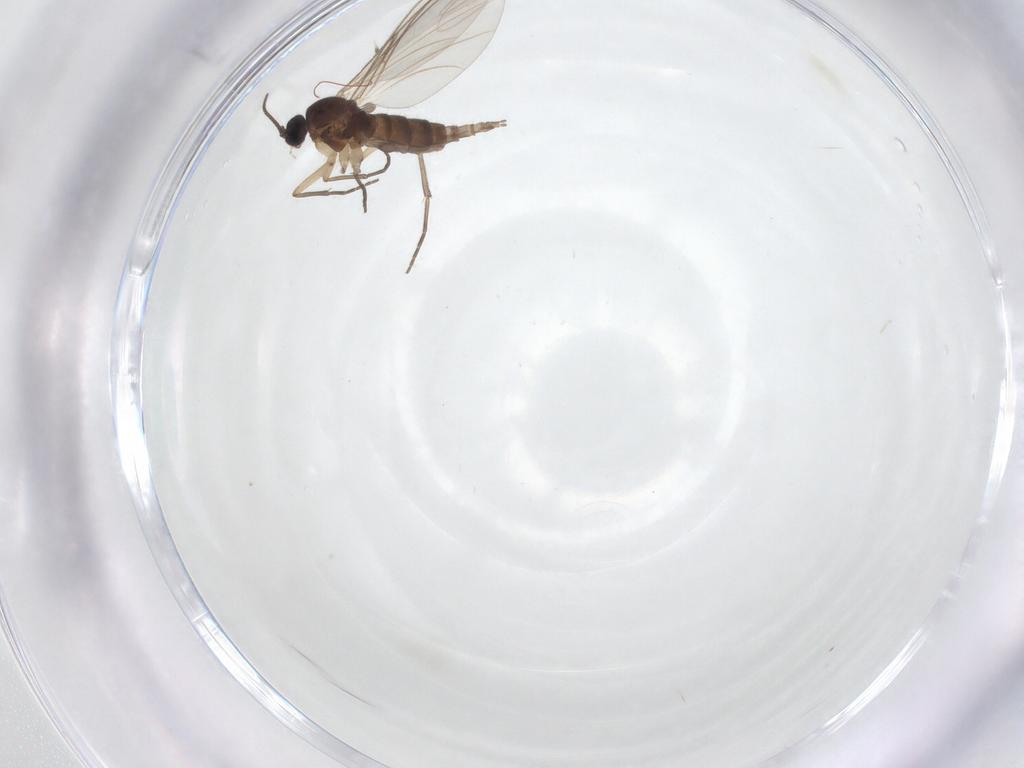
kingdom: Animalia
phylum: Arthropoda
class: Insecta
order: Diptera
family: Sciaridae
